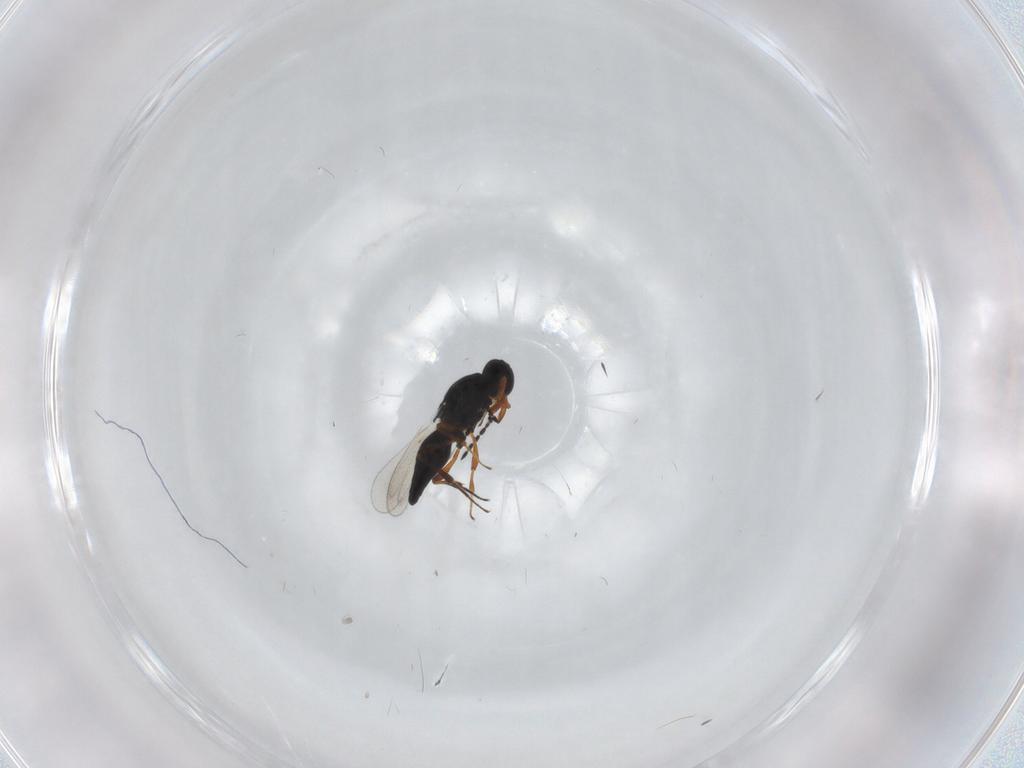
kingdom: Animalia
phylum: Arthropoda
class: Insecta
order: Hymenoptera
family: Platygastridae
